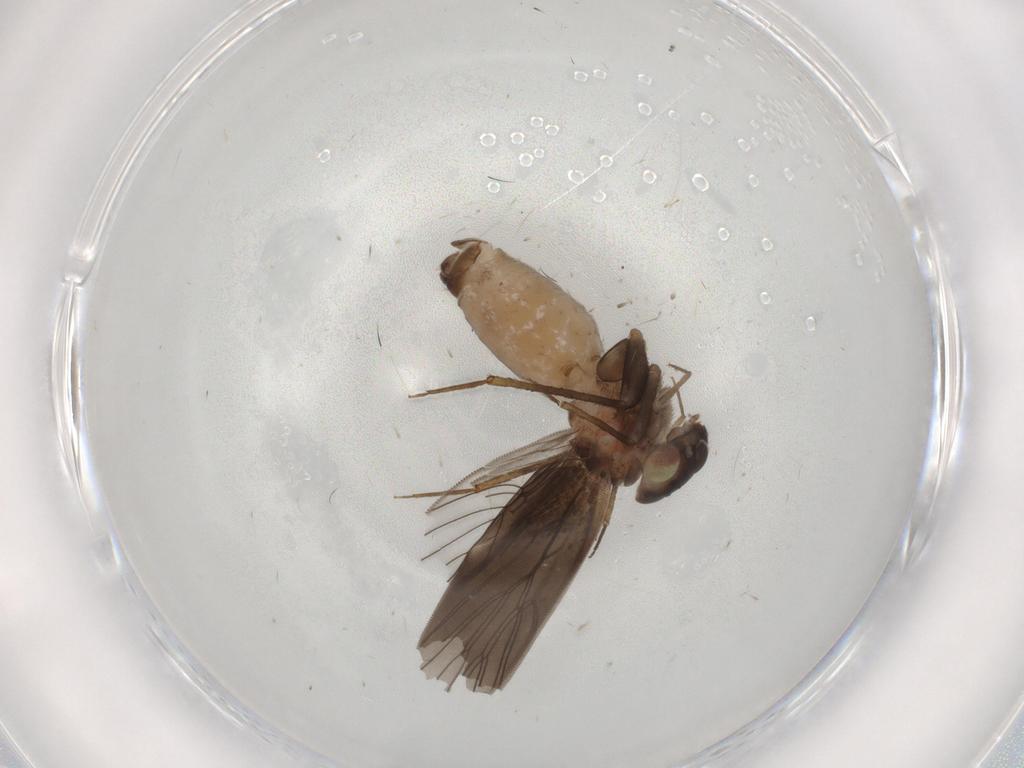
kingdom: Animalia
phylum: Arthropoda
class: Insecta
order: Psocodea
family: Lepidopsocidae
